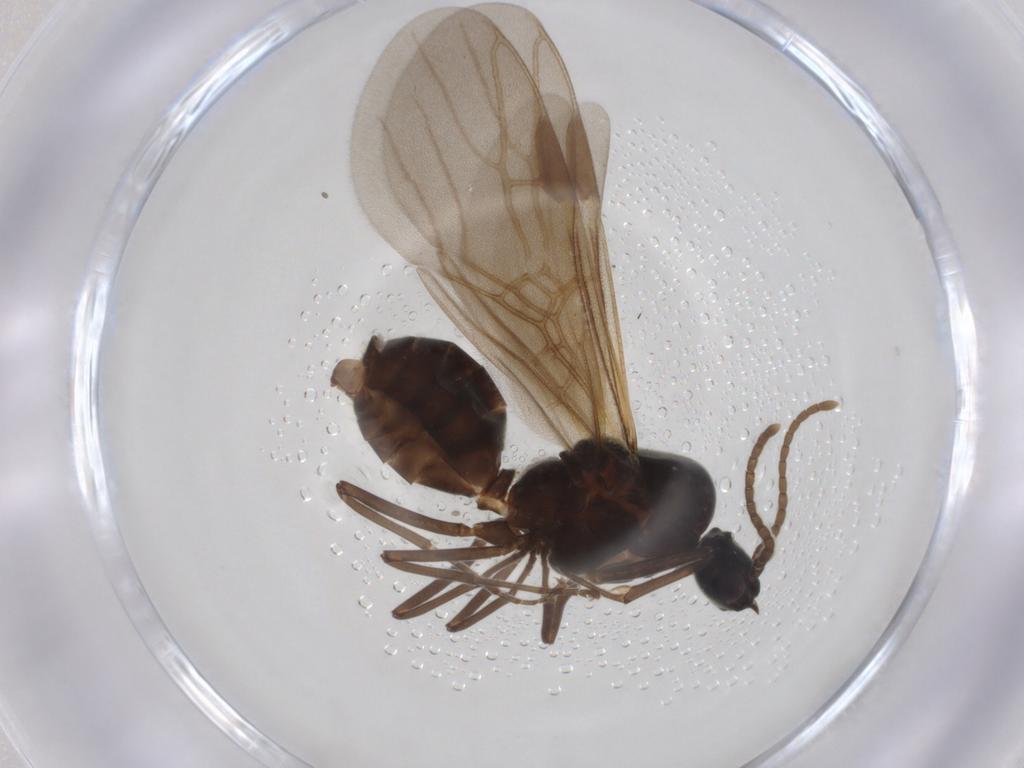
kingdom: Animalia
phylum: Arthropoda
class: Insecta
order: Hymenoptera
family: Formicidae
